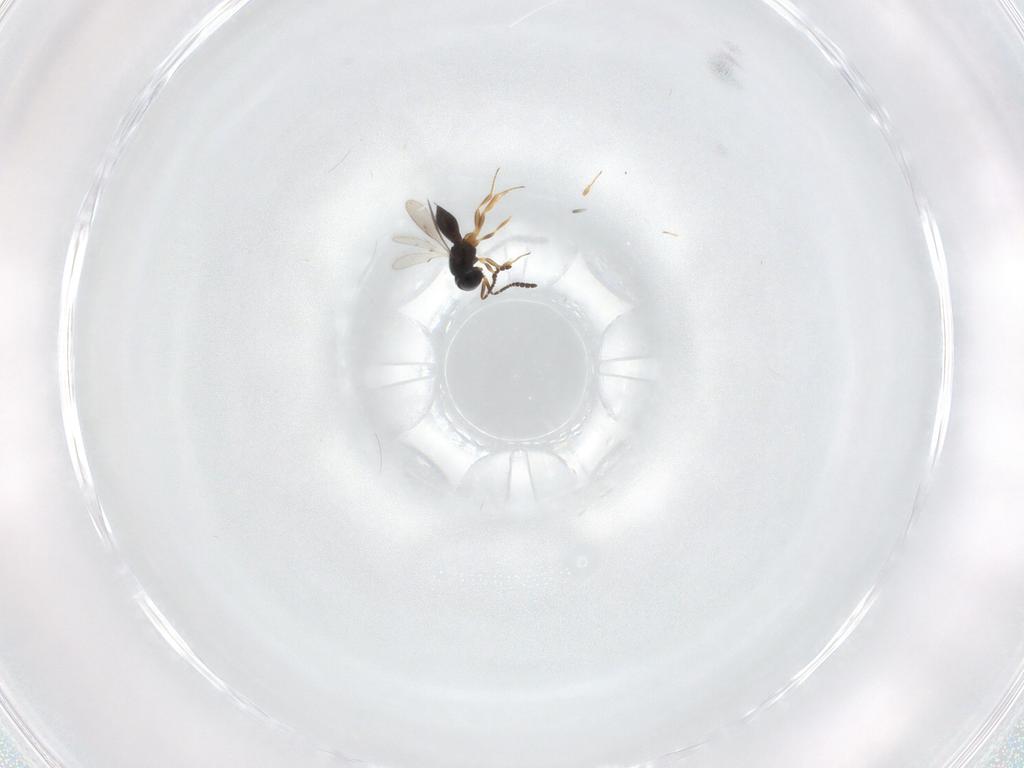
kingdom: Animalia
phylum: Arthropoda
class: Insecta
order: Hymenoptera
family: Scelionidae
